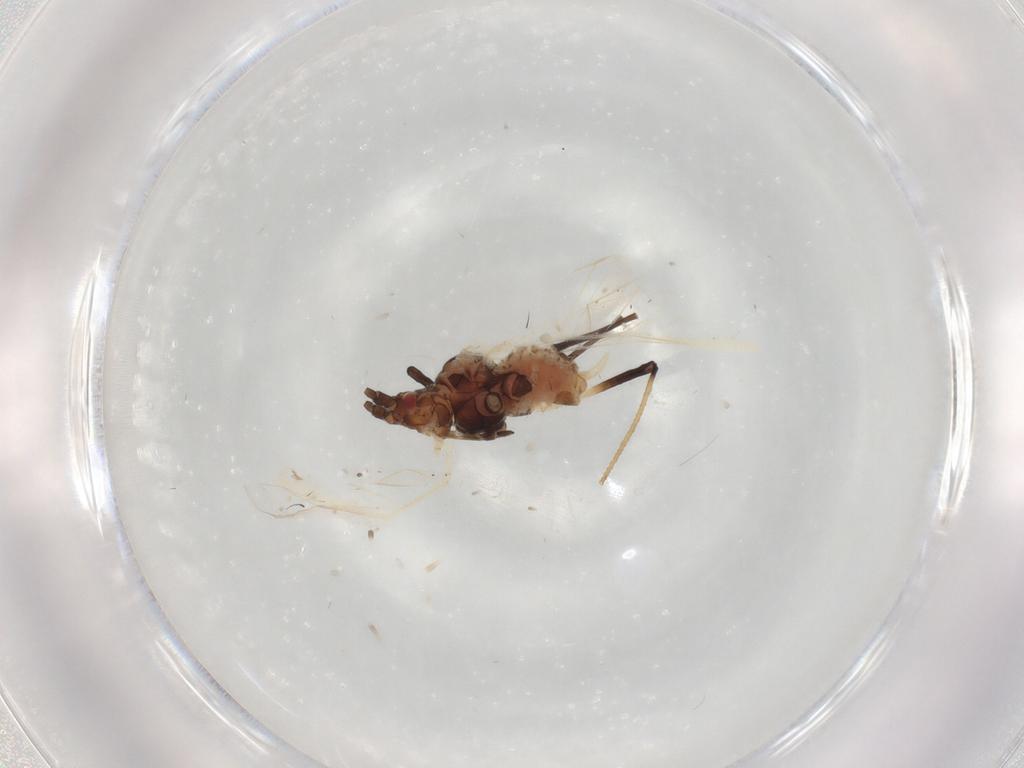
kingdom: Animalia
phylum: Arthropoda
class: Insecta
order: Hemiptera
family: Aphididae
